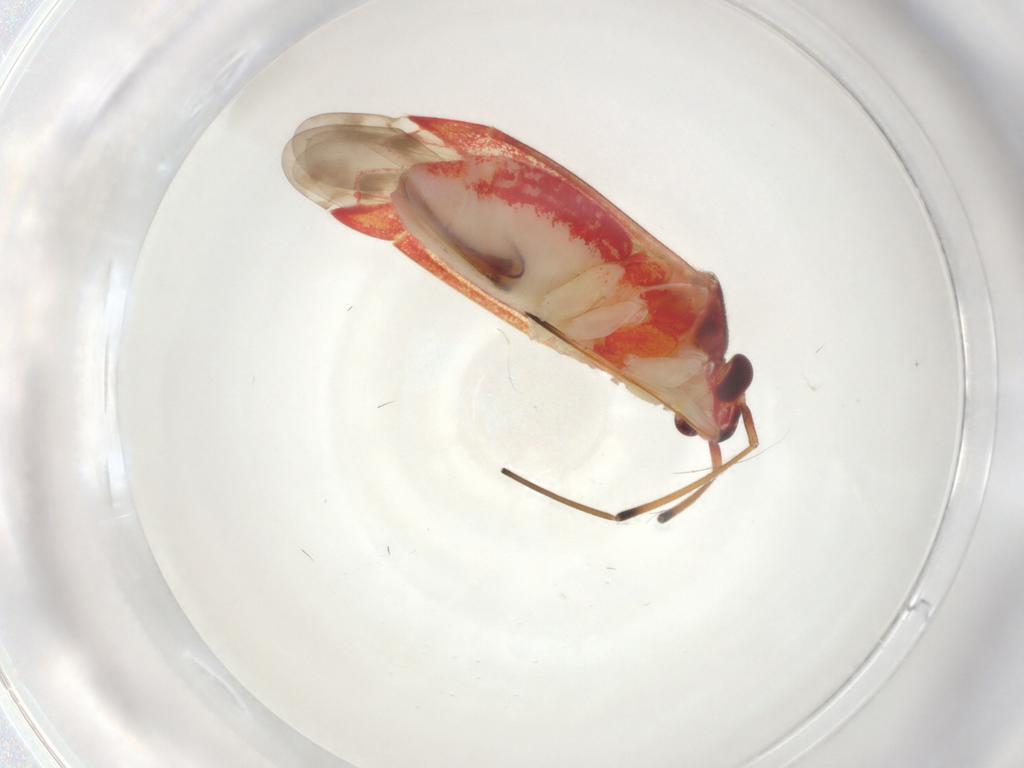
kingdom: Animalia
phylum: Arthropoda
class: Insecta
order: Hemiptera
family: Miridae
